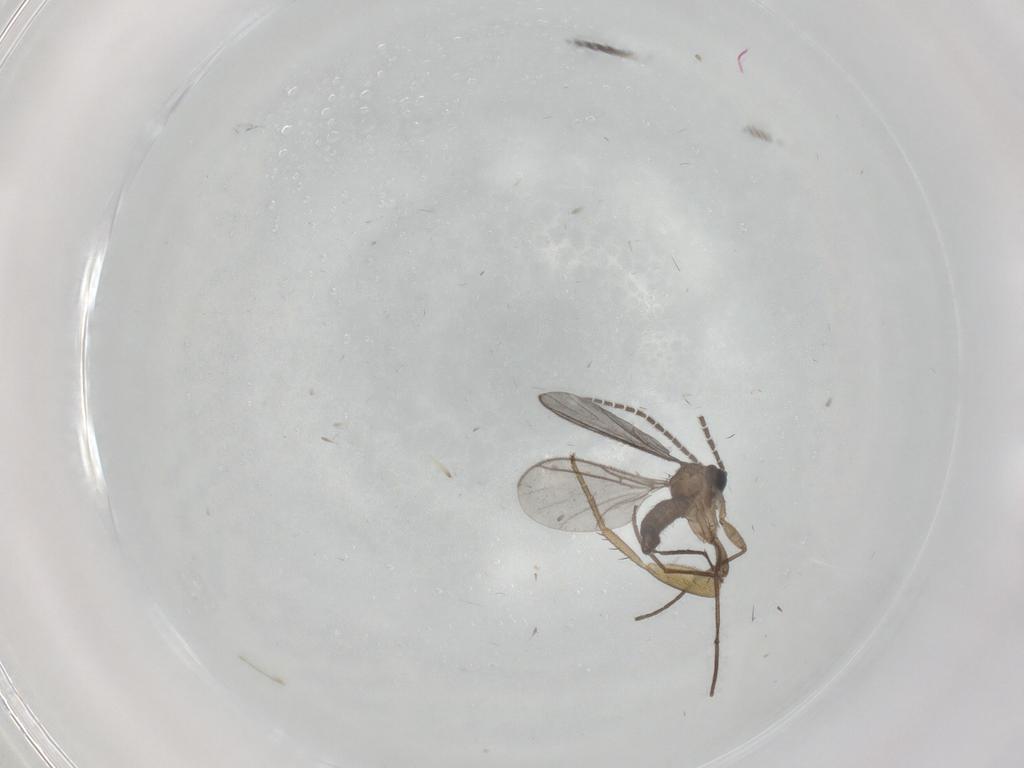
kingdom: Animalia
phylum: Arthropoda
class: Insecta
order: Diptera
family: Phoridae
